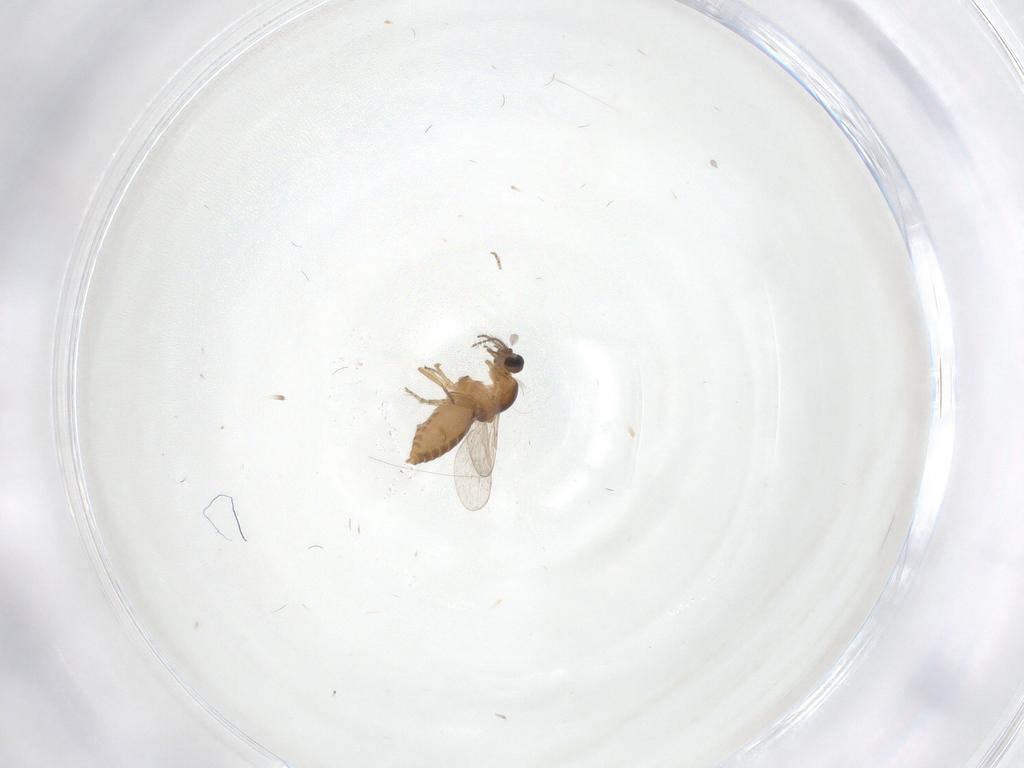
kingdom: Animalia
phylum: Arthropoda
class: Insecta
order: Diptera
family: Ceratopogonidae
